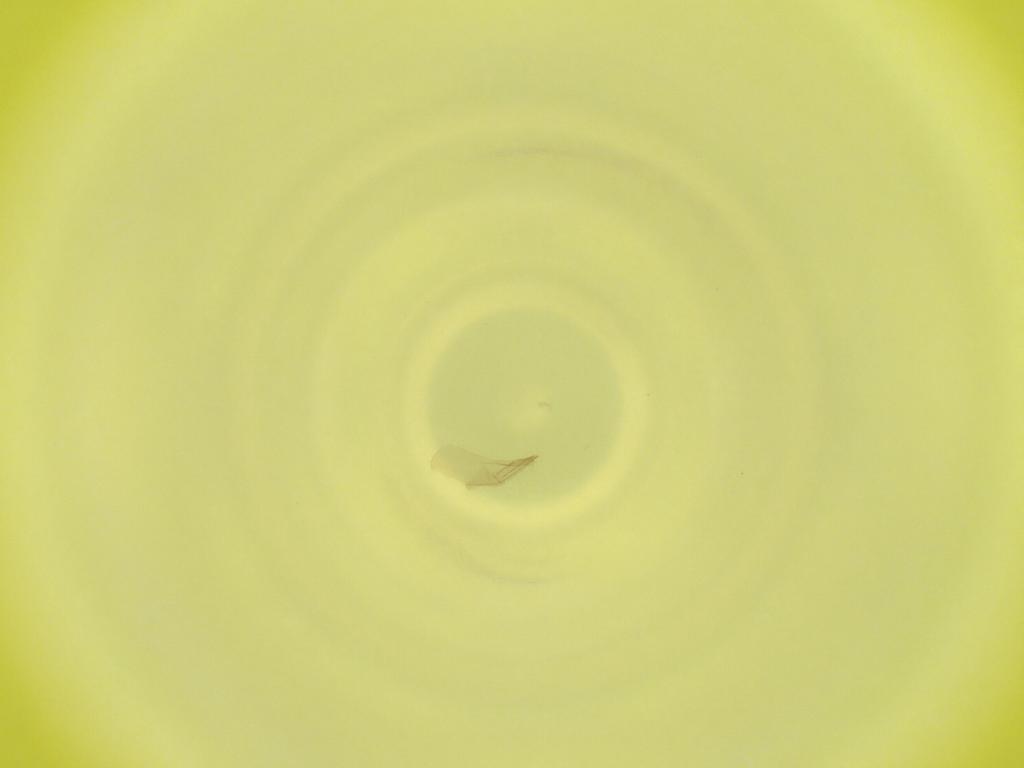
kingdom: Animalia
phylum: Arthropoda
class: Insecta
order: Diptera
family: Cecidomyiidae
